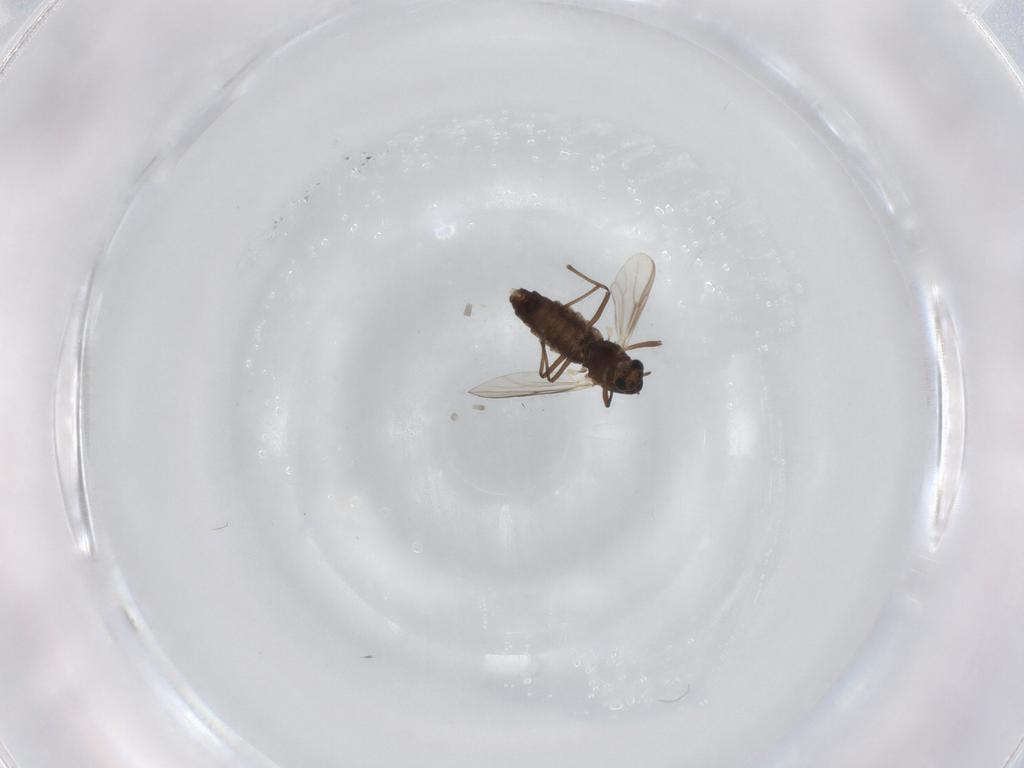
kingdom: Animalia
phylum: Arthropoda
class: Insecta
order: Diptera
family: Chironomidae
